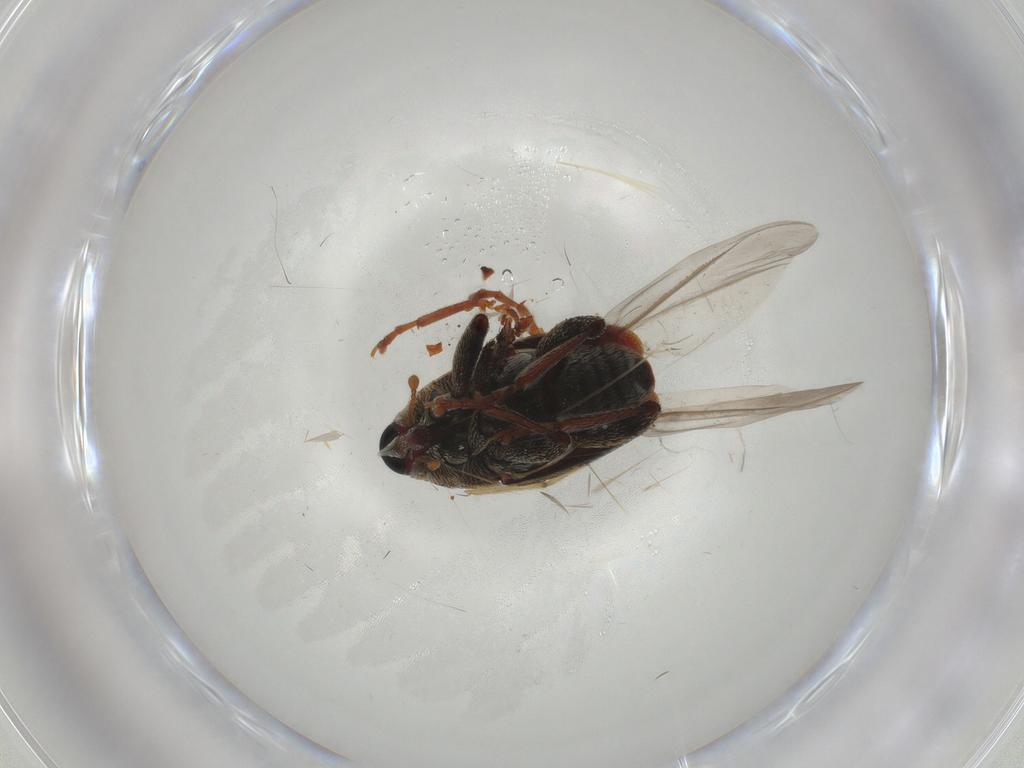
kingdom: Animalia
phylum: Arthropoda
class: Insecta
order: Coleoptera
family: Curculionidae
